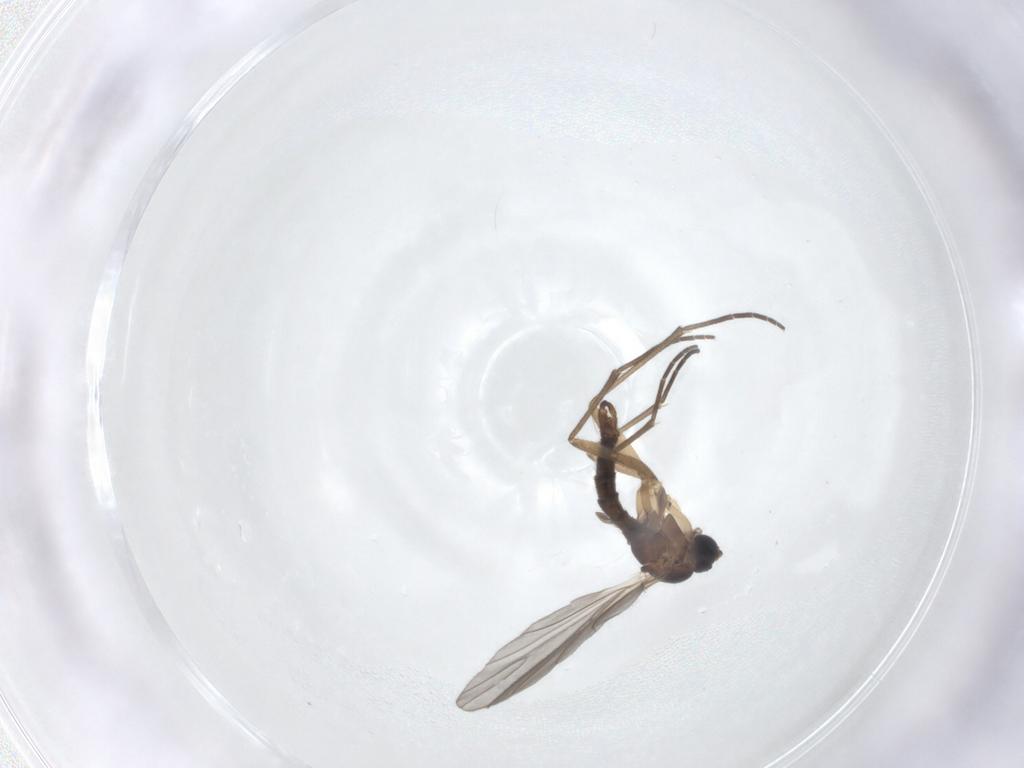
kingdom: Animalia
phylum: Arthropoda
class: Insecta
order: Diptera
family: Sciaridae
